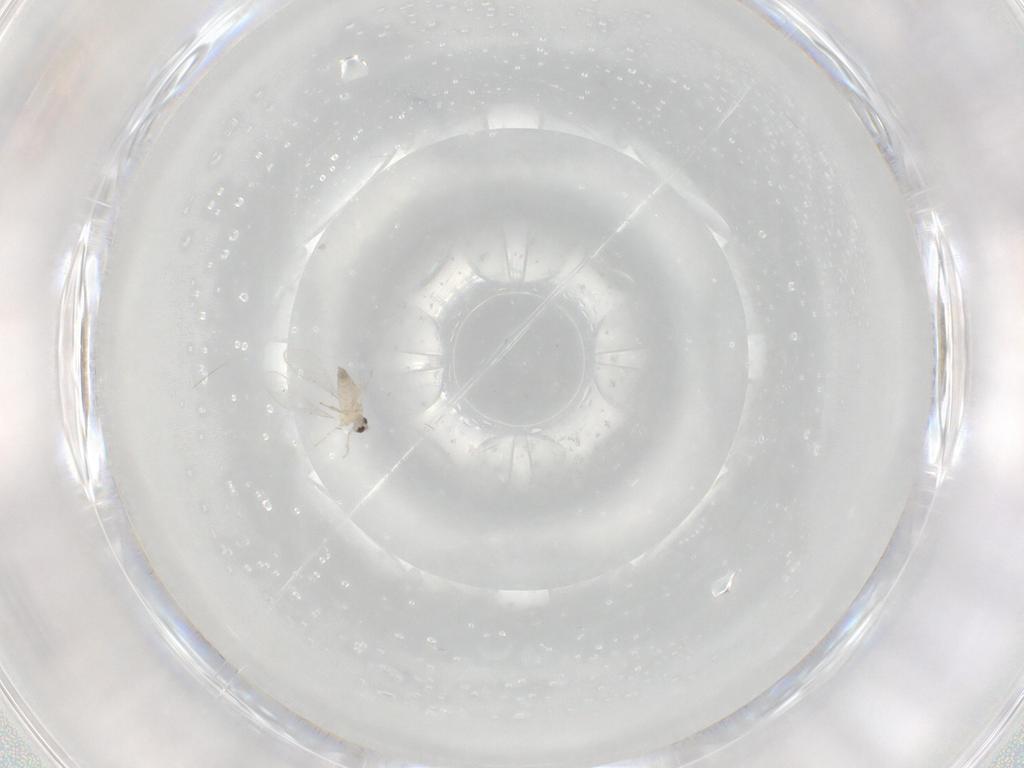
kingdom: Animalia
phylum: Arthropoda
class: Insecta
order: Diptera
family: Cecidomyiidae
